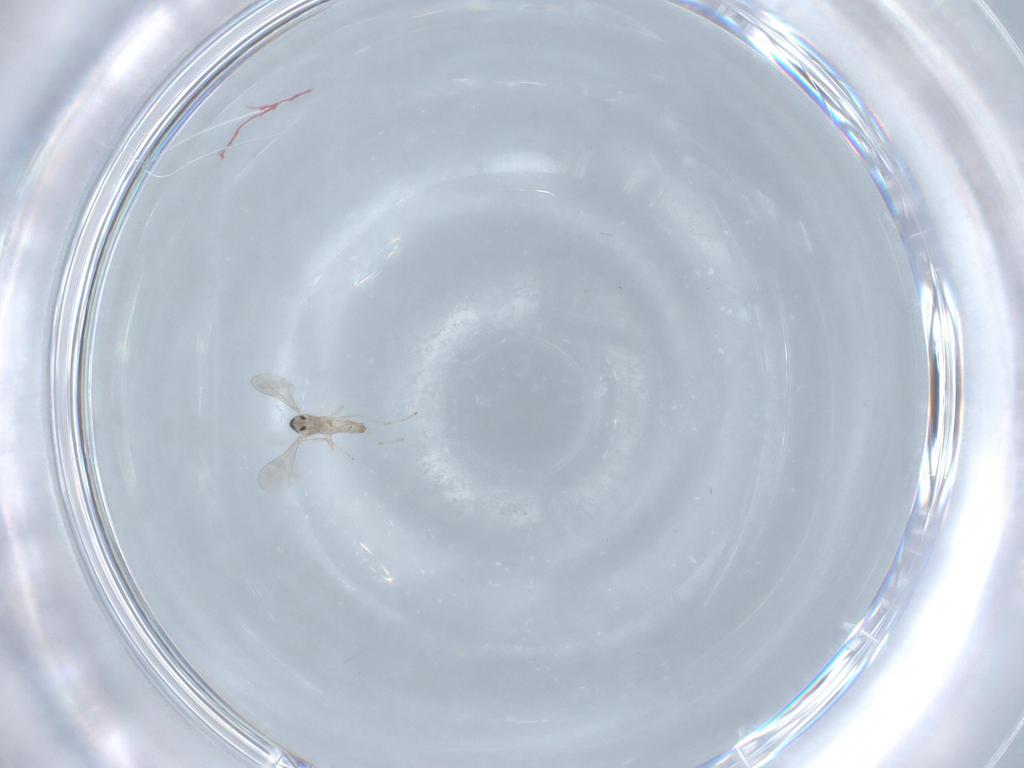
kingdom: Animalia
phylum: Arthropoda
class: Insecta
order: Diptera
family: Cecidomyiidae
